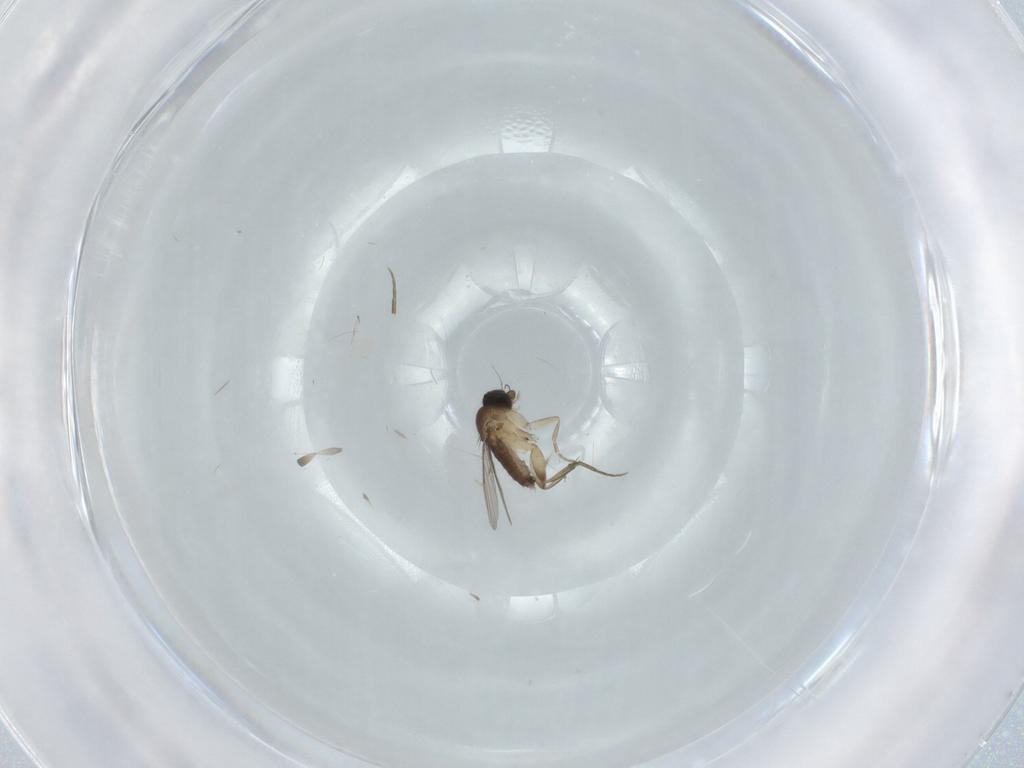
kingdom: Animalia
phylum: Arthropoda
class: Insecta
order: Diptera
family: Cecidomyiidae
